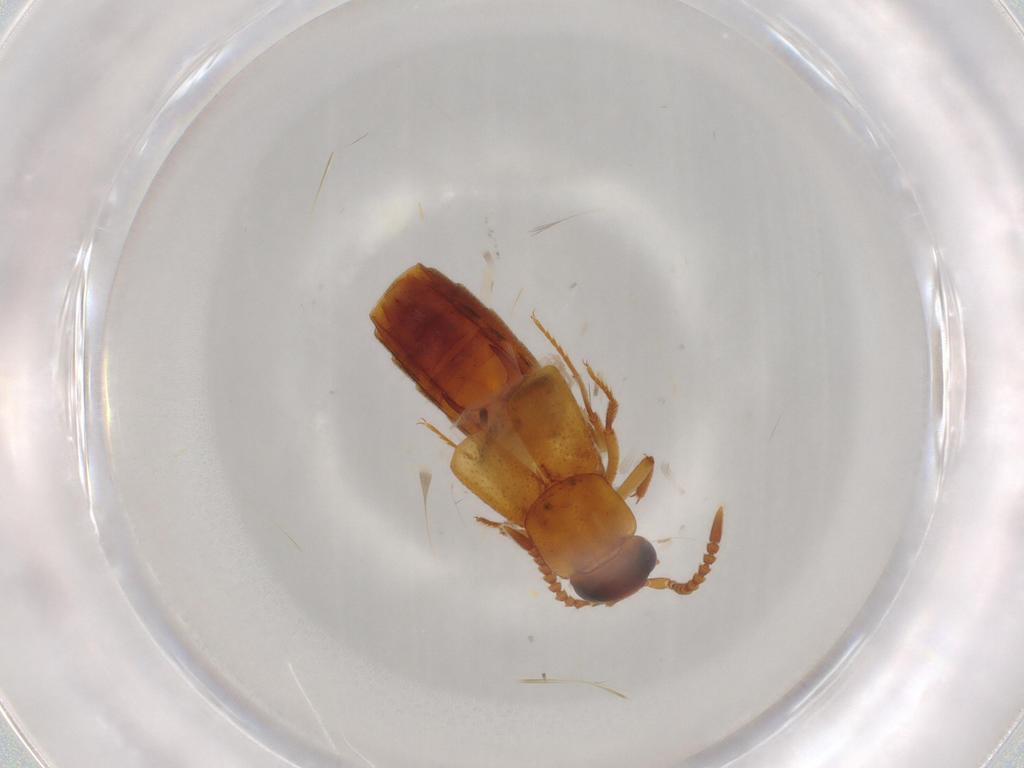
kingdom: Animalia
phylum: Arthropoda
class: Insecta
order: Coleoptera
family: Staphylinidae
